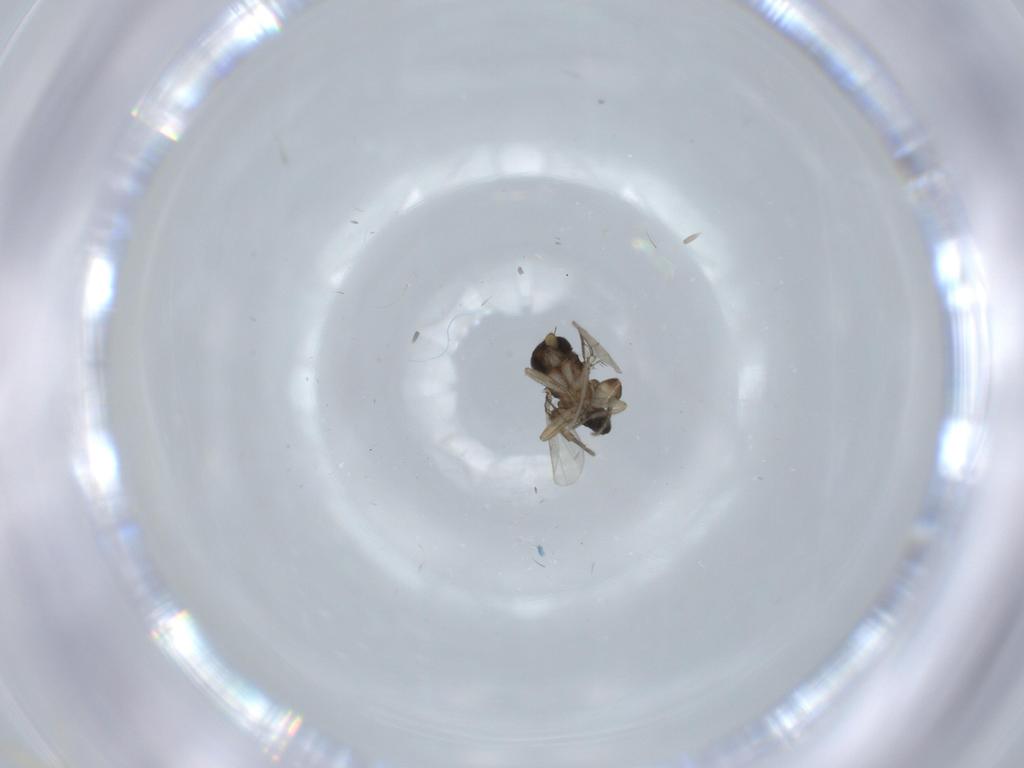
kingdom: Animalia
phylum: Arthropoda
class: Insecta
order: Diptera
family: Phoridae
